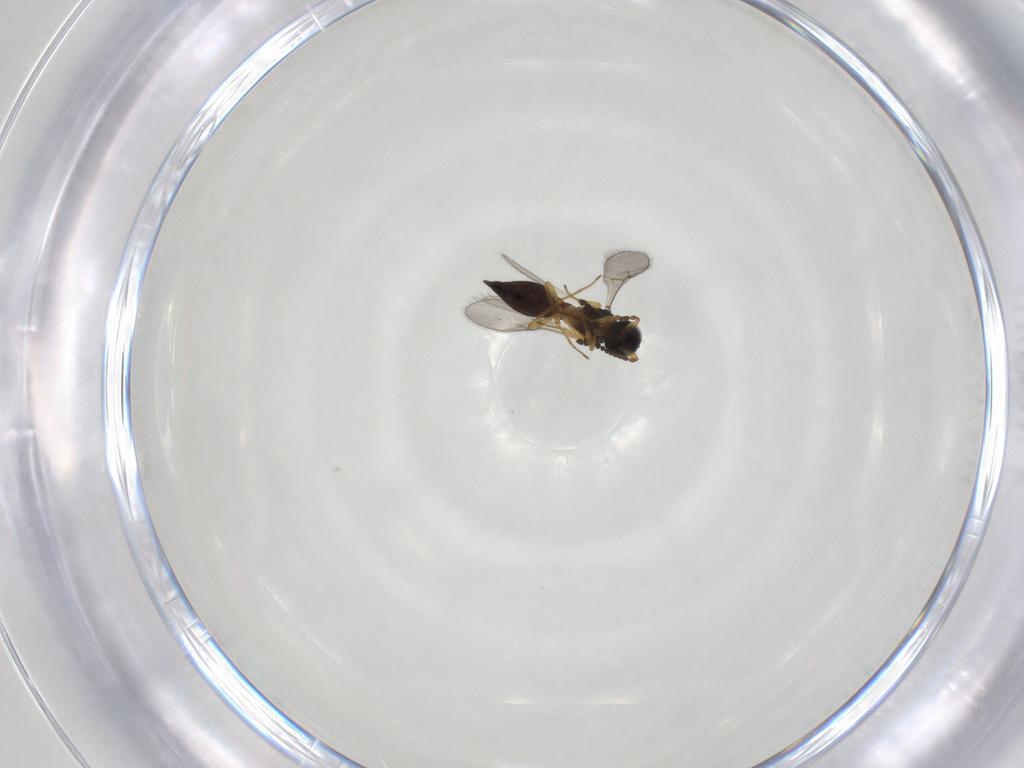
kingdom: Animalia
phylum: Arthropoda
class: Insecta
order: Hymenoptera
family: Scelionidae
